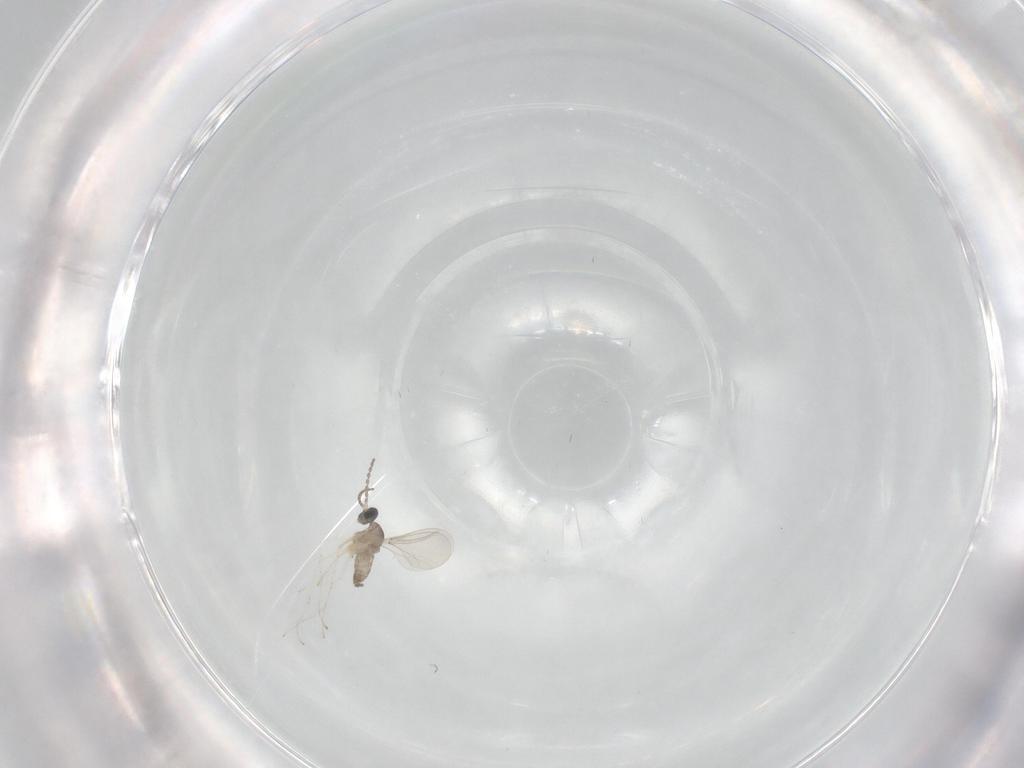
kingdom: Animalia
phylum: Arthropoda
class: Insecta
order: Diptera
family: Cecidomyiidae
